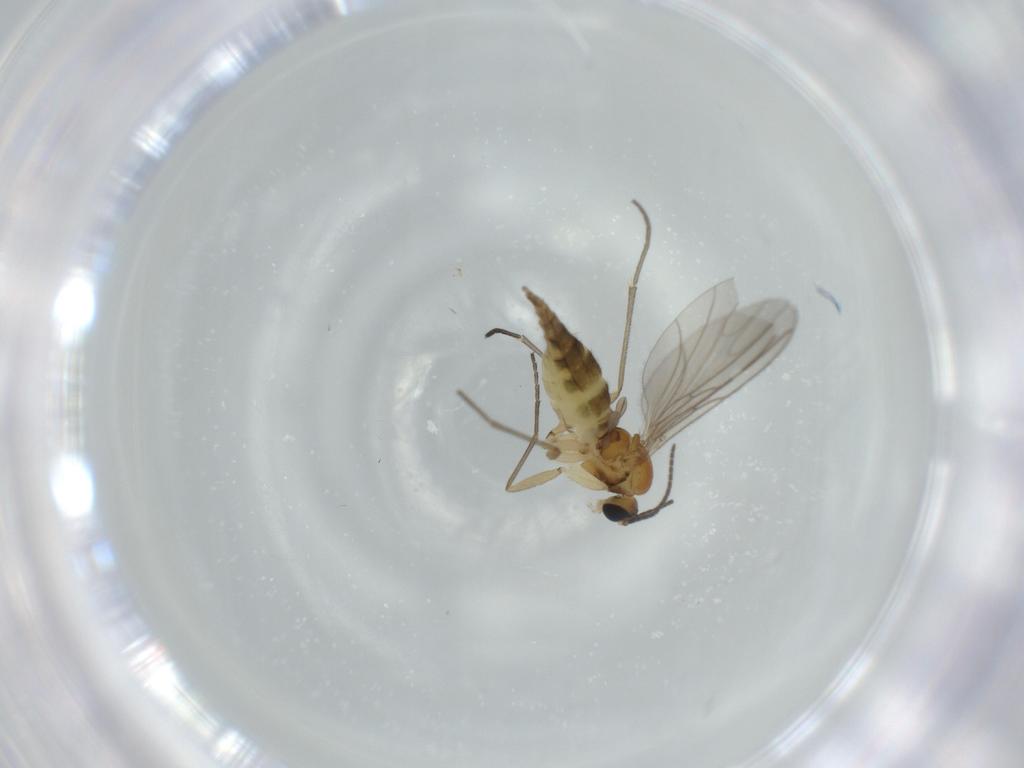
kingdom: Animalia
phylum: Arthropoda
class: Insecta
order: Diptera
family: Sciaridae
